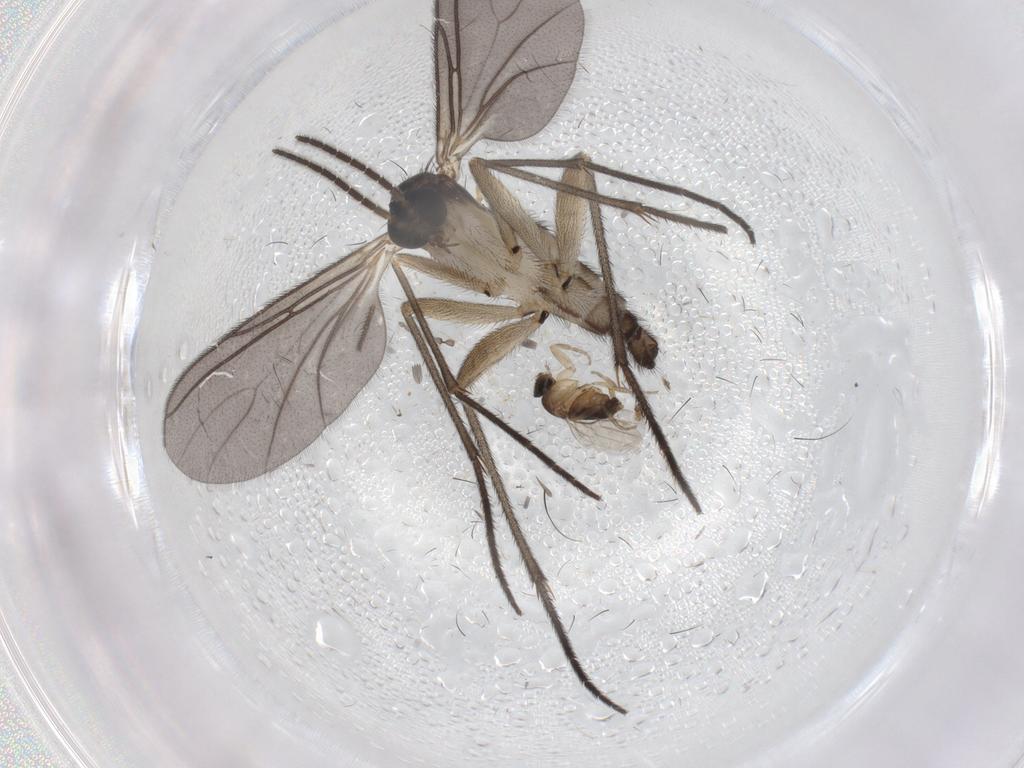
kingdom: Animalia
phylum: Arthropoda
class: Insecta
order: Diptera
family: Sciaridae
